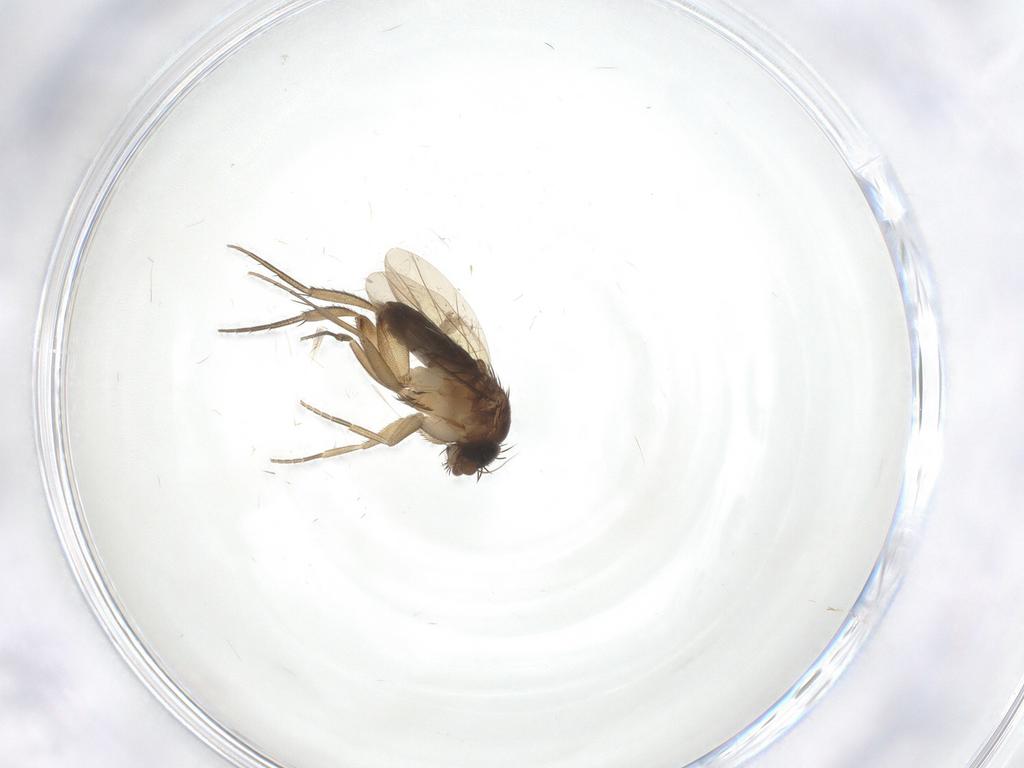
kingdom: Animalia
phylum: Arthropoda
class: Insecta
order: Diptera
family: Phoridae
